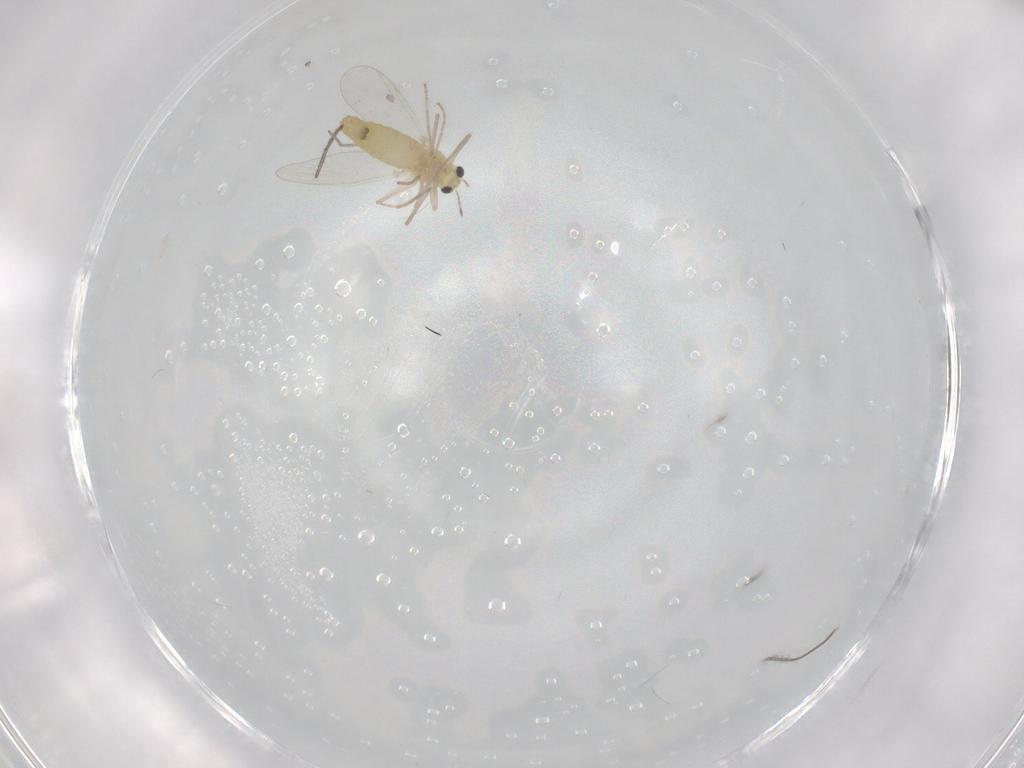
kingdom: Animalia
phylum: Arthropoda
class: Insecta
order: Diptera
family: Chironomidae
